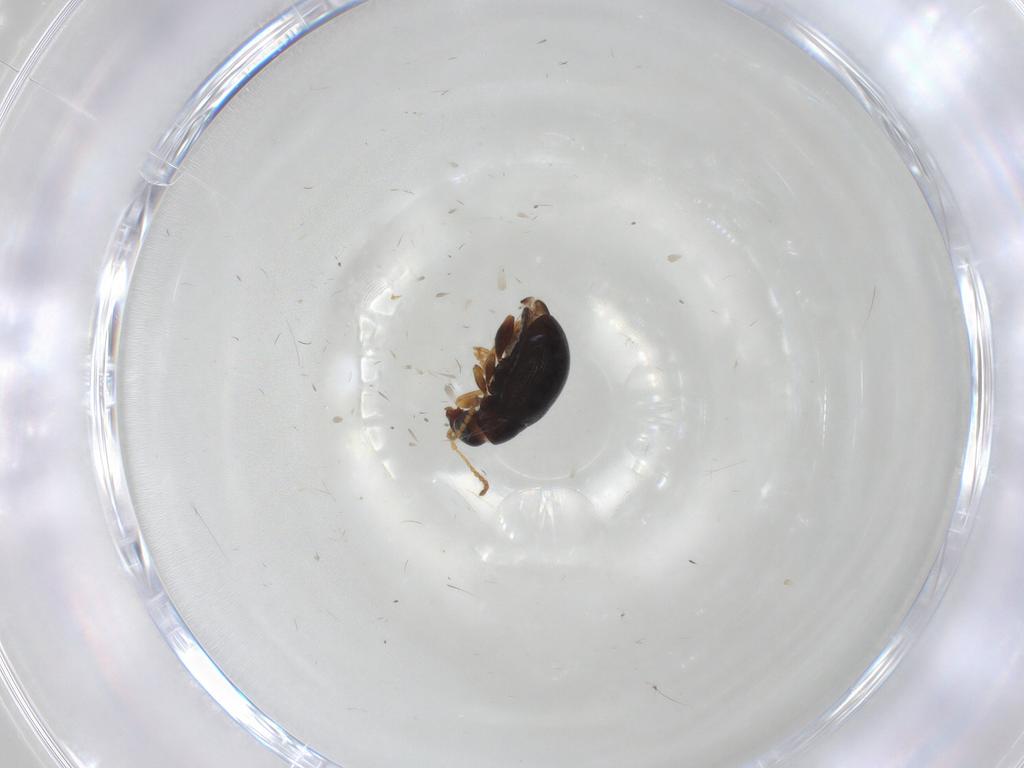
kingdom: Animalia
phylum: Arthropoda
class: Insecta
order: Coleoptera
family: Chrysomelidae
